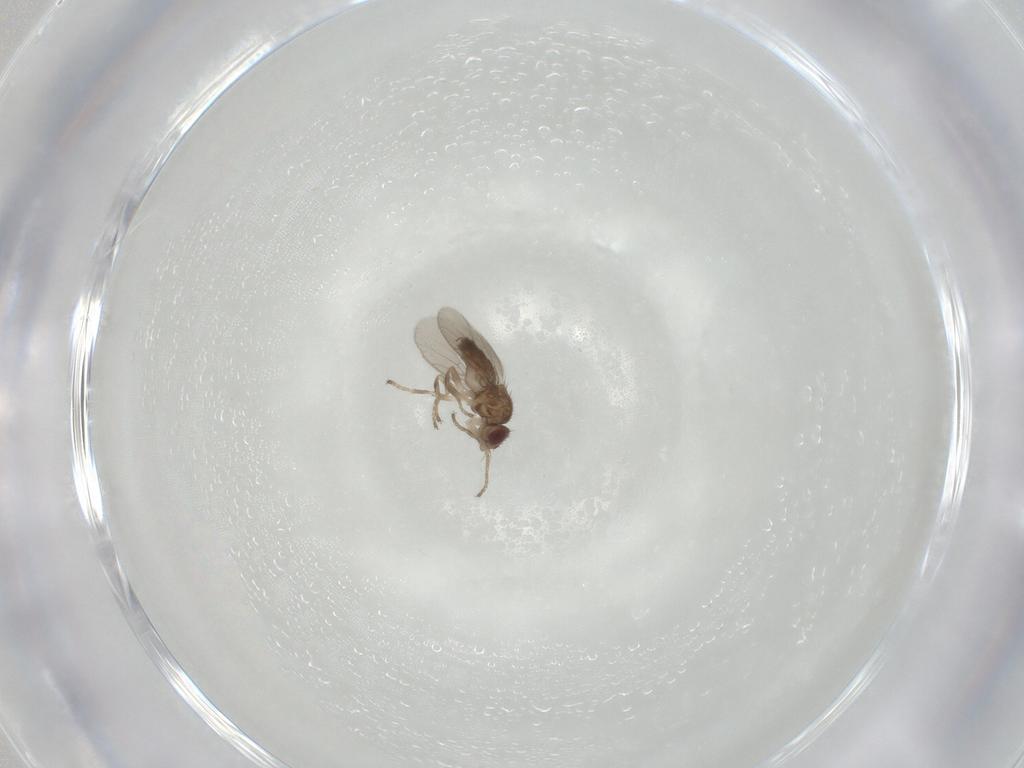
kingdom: Animalia
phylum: Arthropoda
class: Insecta
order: Diptera
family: Chloropidae
